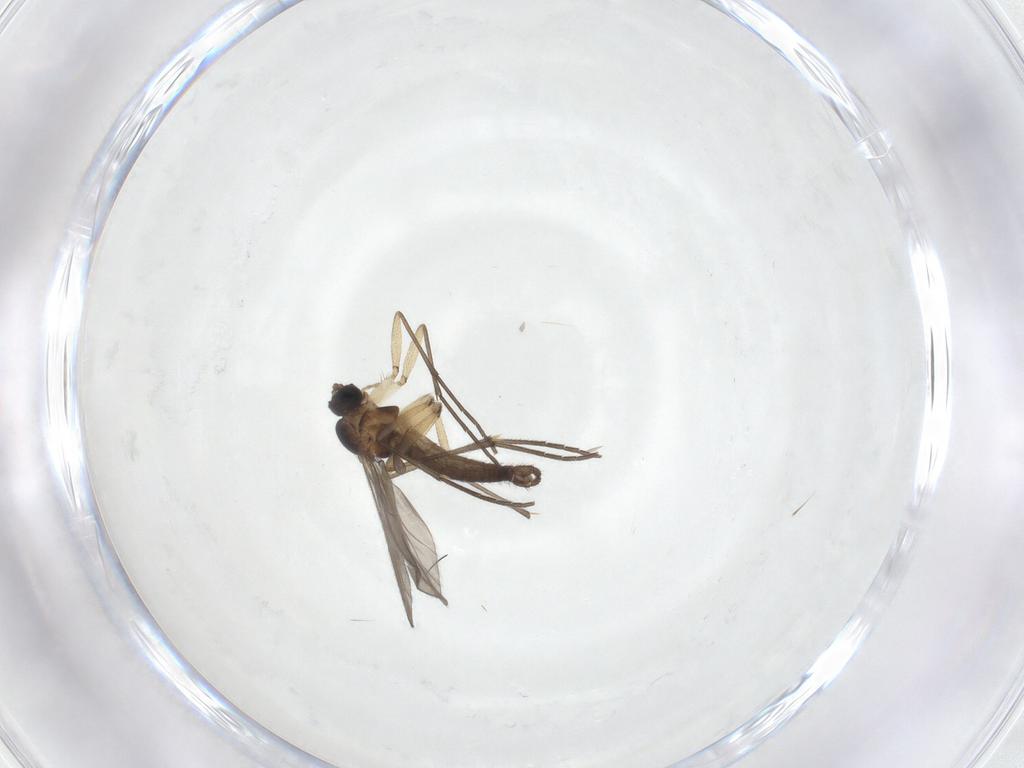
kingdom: Animalia
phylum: Arthropoda
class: Insecta
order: Diptera
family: Sciaridae
